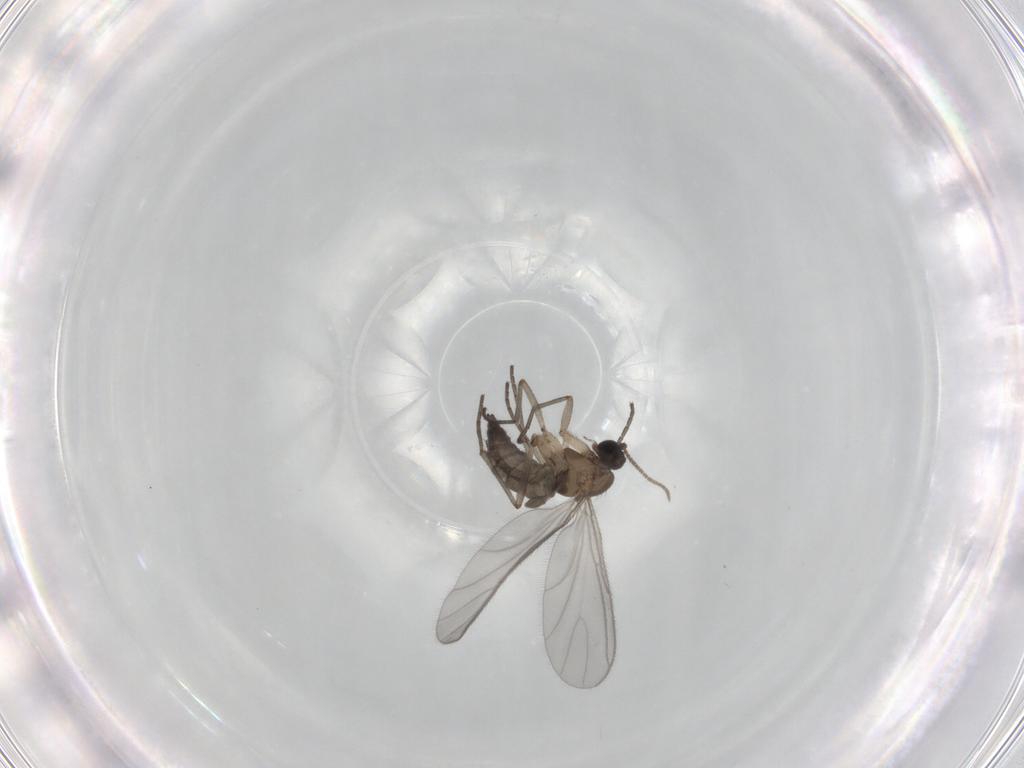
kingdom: Animalia
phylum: Arthropoda
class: Insecta
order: Diptera
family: Sciaridae
